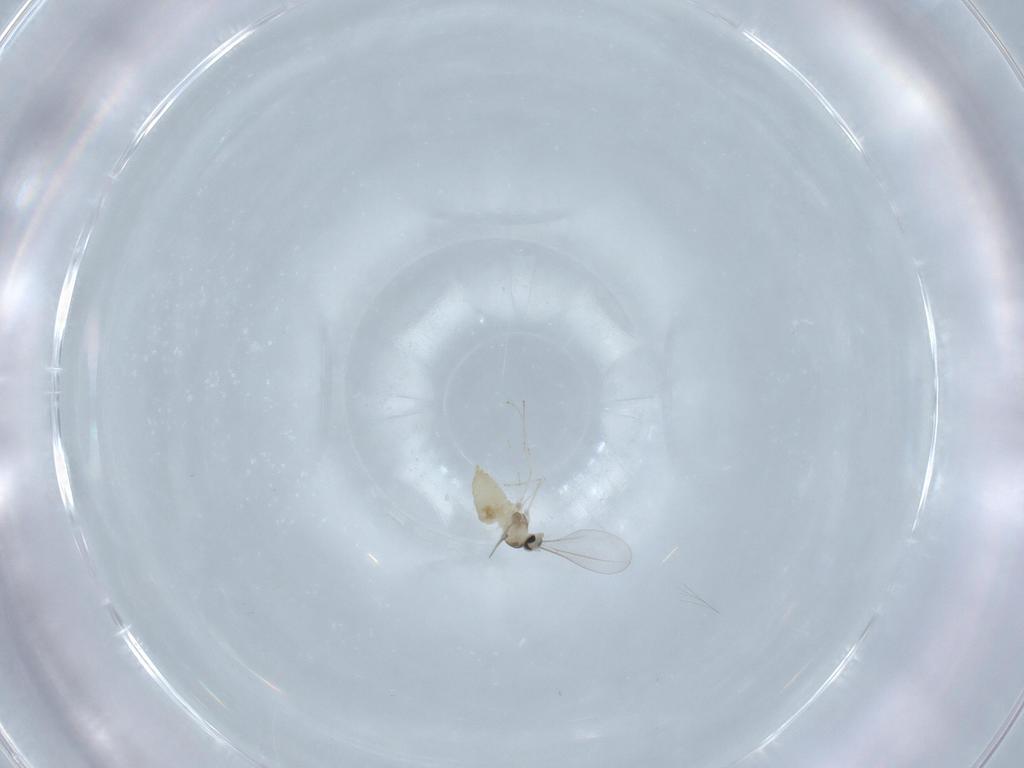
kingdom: Animalia
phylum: Arthropoda
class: Insecta
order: Diptera
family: Cecidomyiidae
